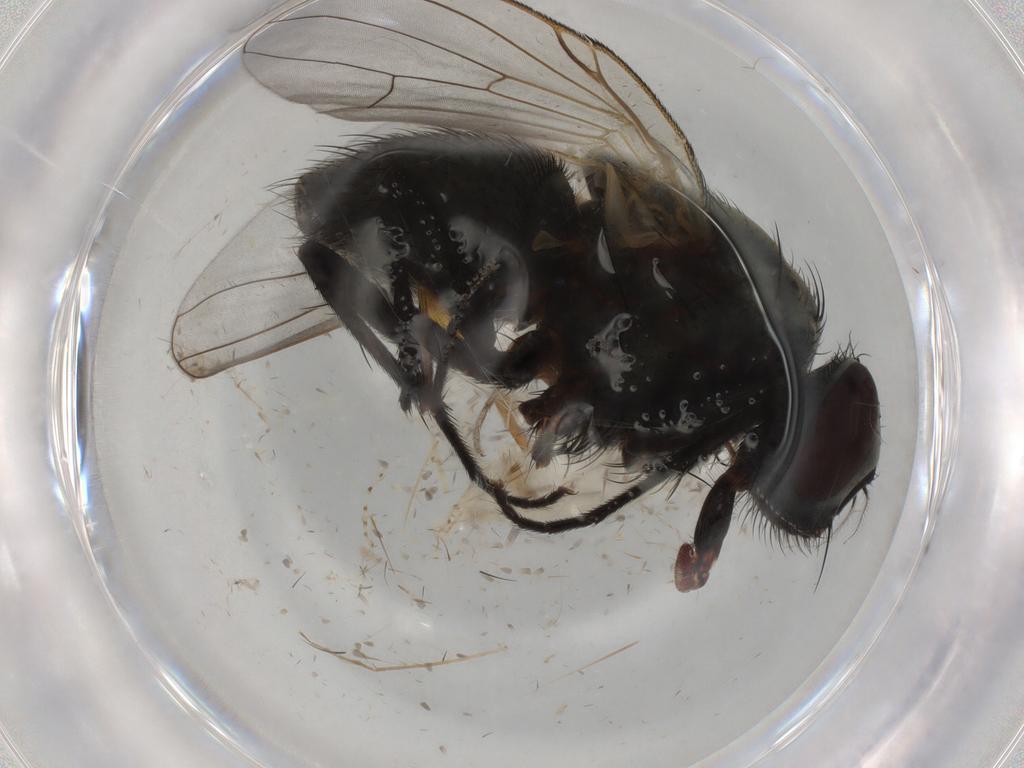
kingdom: Animalia
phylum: Arthropoda
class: Insecta
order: Diptera
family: Muscidae
